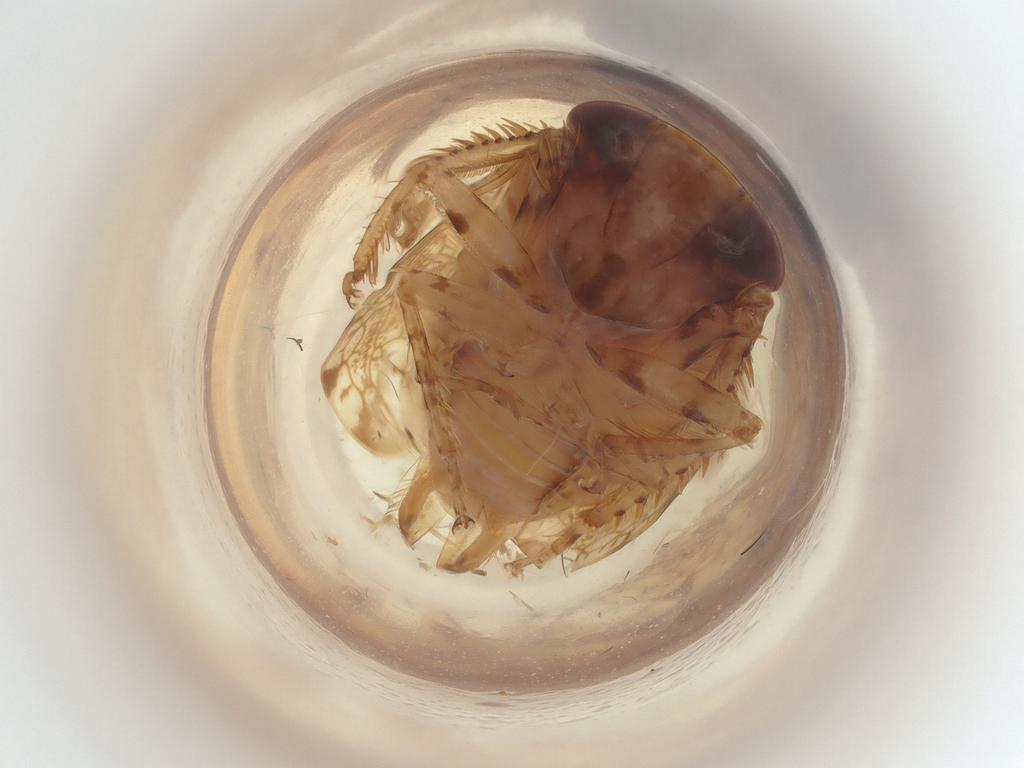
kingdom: Animalia
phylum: Arthropoda
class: Insecta
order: Hemiptera
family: Cicadellidae
